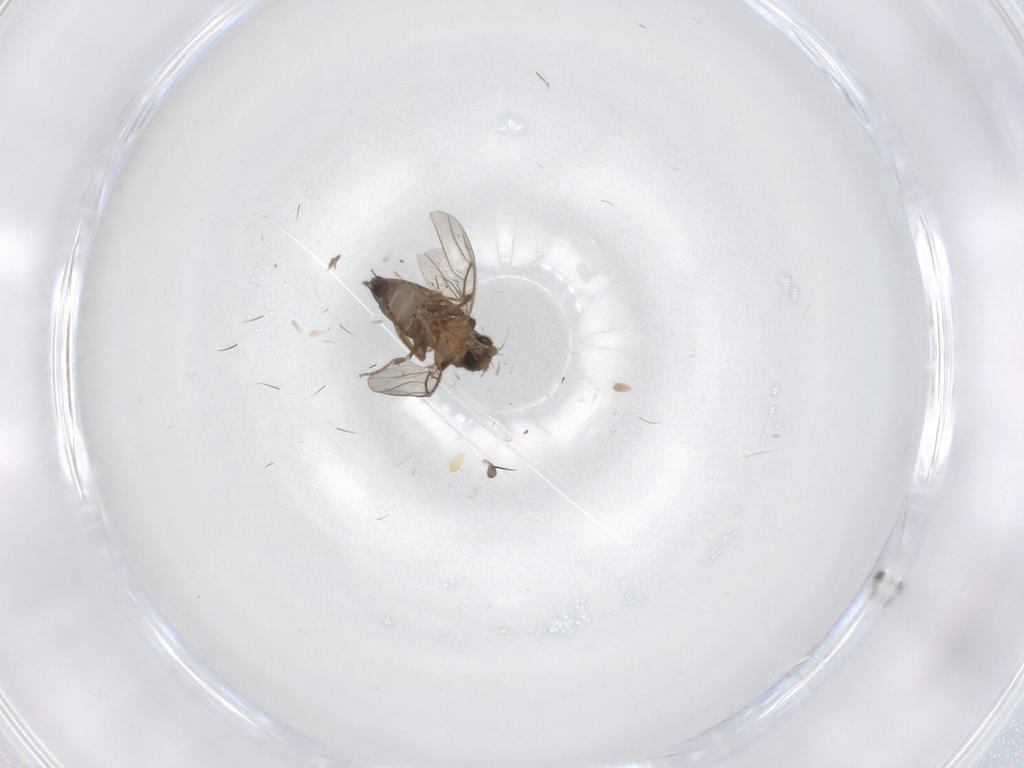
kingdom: Animalia
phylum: Arthropoda
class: Insecta
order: Diptera
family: Phoridae
